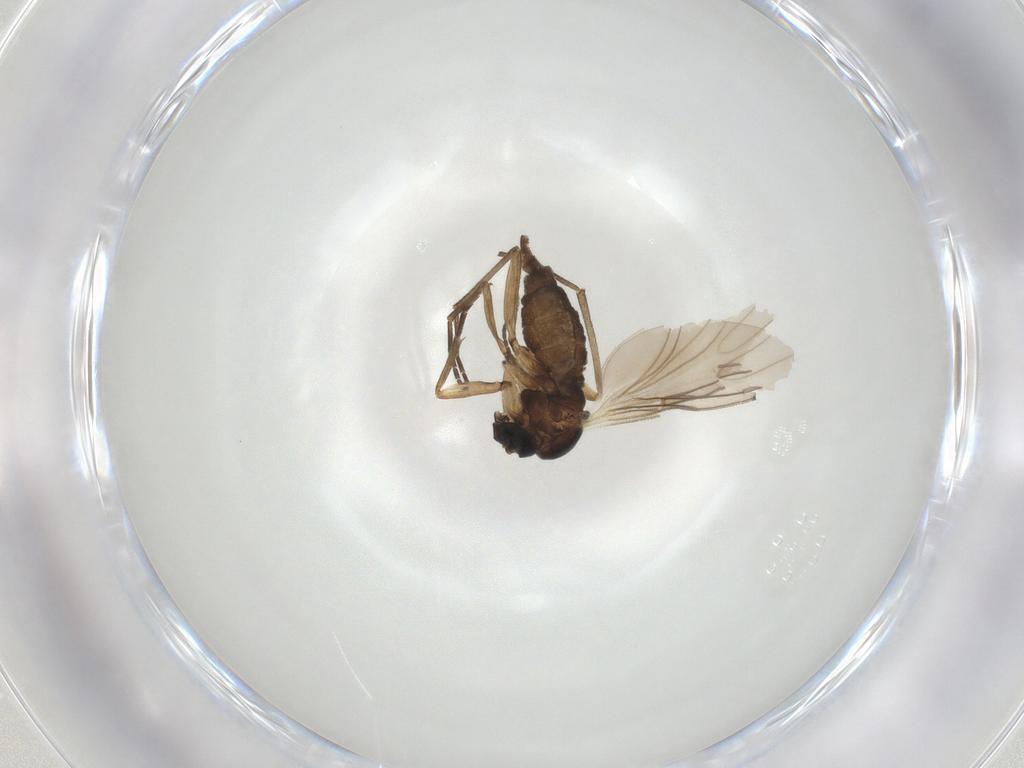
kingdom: Animalia
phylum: Arthropoda
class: Insecta
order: Diptera
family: Sciaridae
